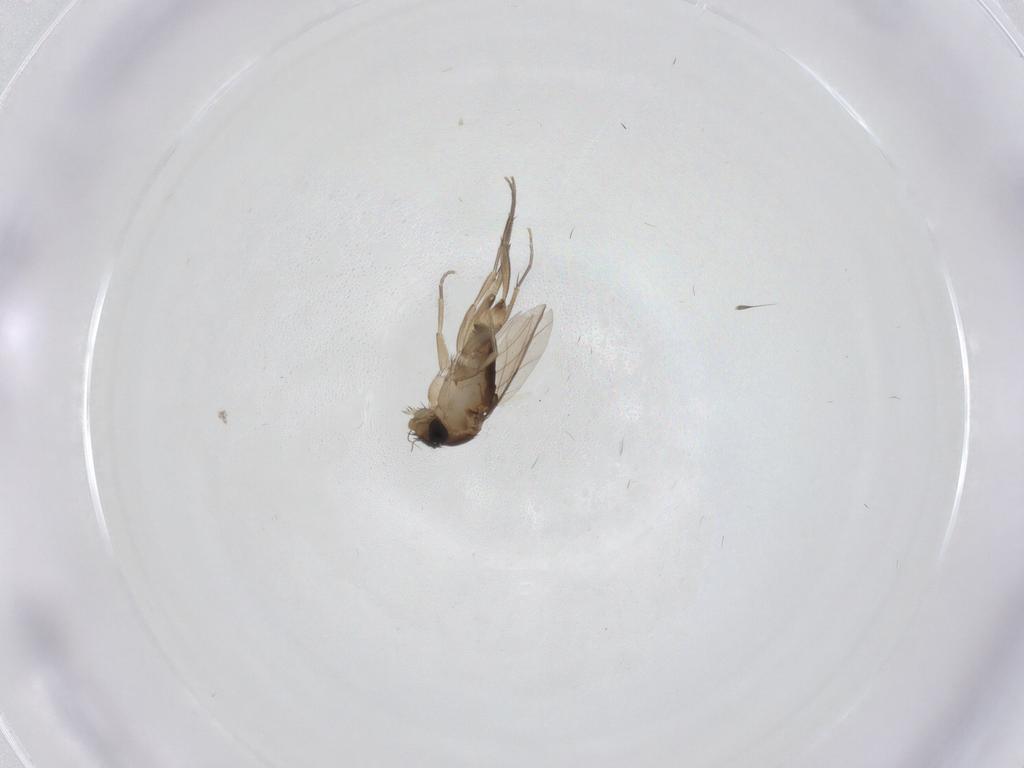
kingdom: Animalia
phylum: Arthropoda
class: Insecta
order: Diptera
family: Phoridae
